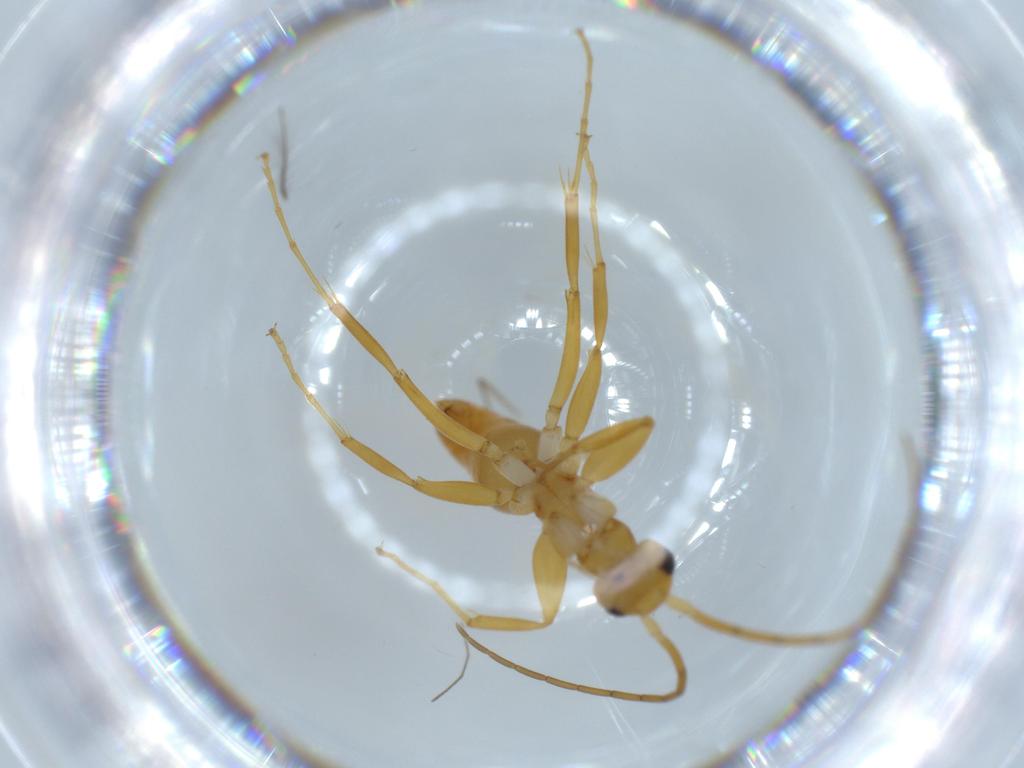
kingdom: Animalia
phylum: Arthropoda
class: Insecta
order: Hymenoptera
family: Rhopalosomatidae
